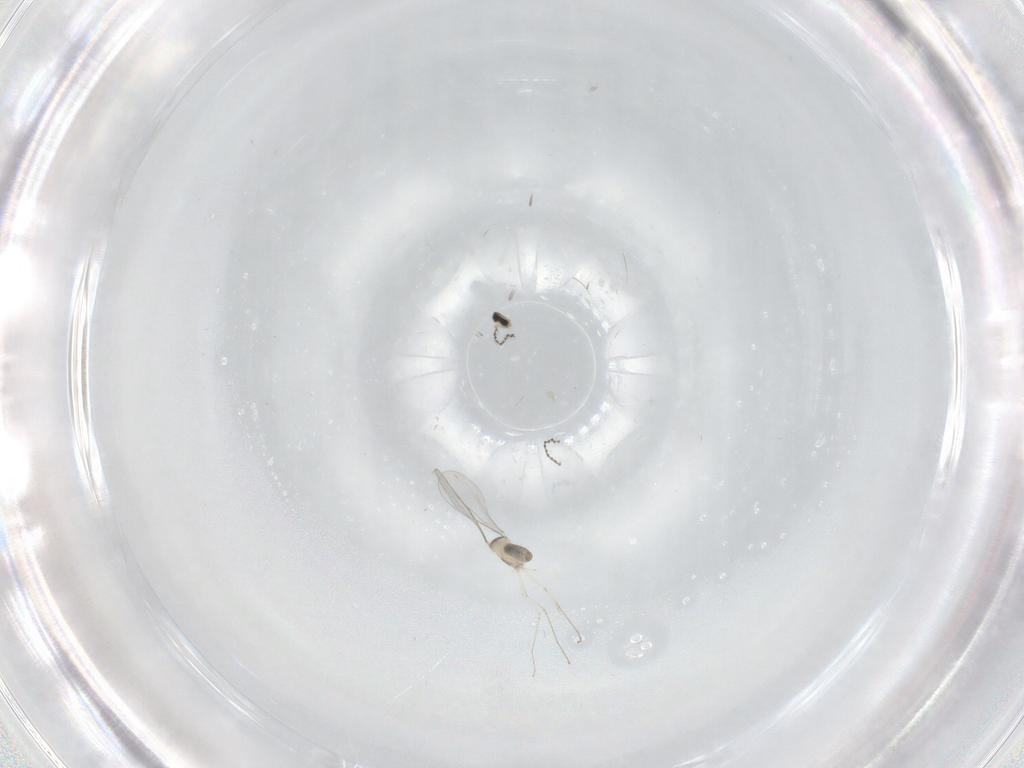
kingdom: Animalia
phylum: Arthropoda
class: Insecta
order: Diptera
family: Cecidomyiidae
